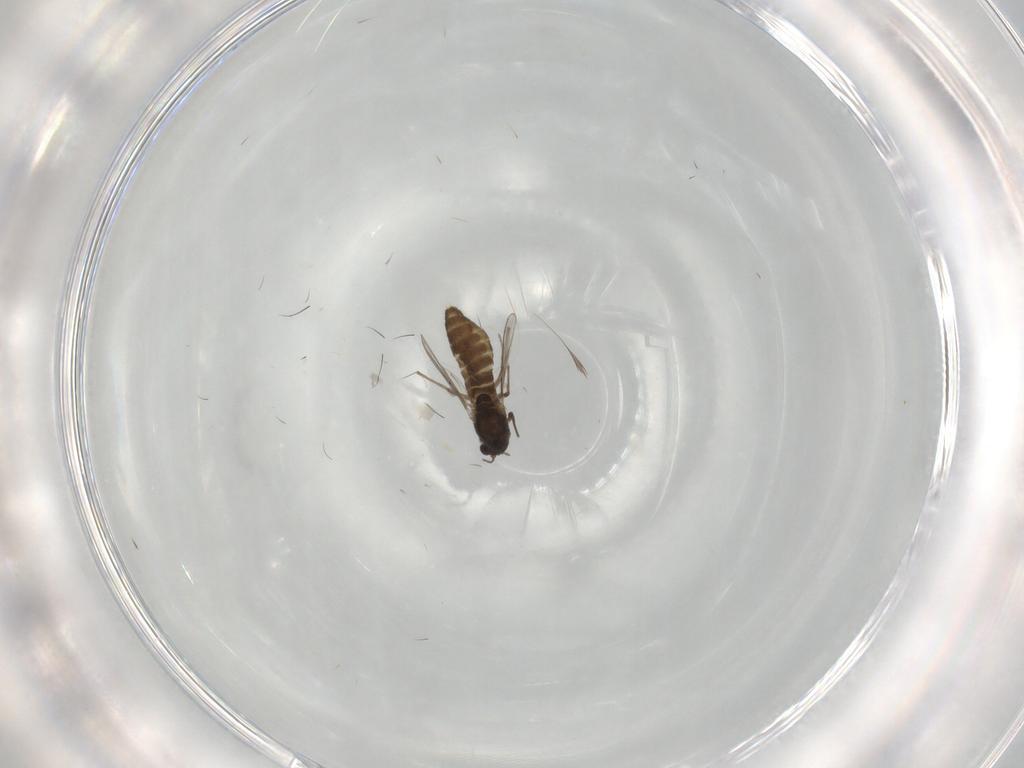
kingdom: Animalia
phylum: Arthropoda
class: Insecta
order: Diptera
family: Chironomidae
